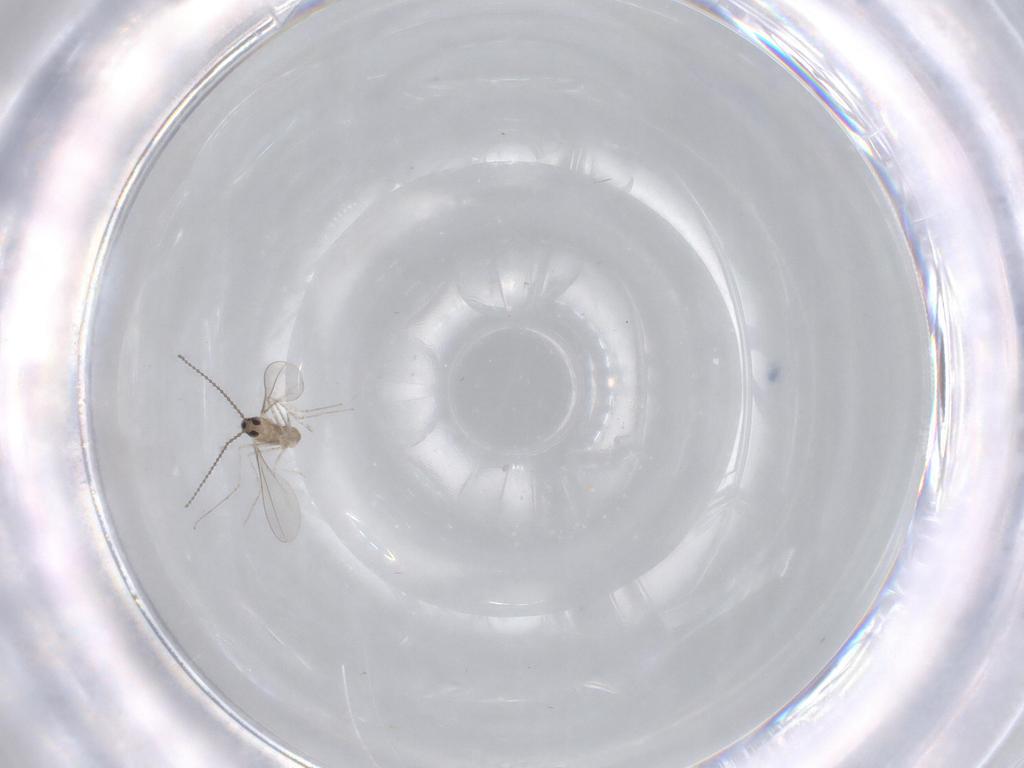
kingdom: Animalia
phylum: Arthropoda
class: Insecta
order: Diptera
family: Cecidomyiidae
